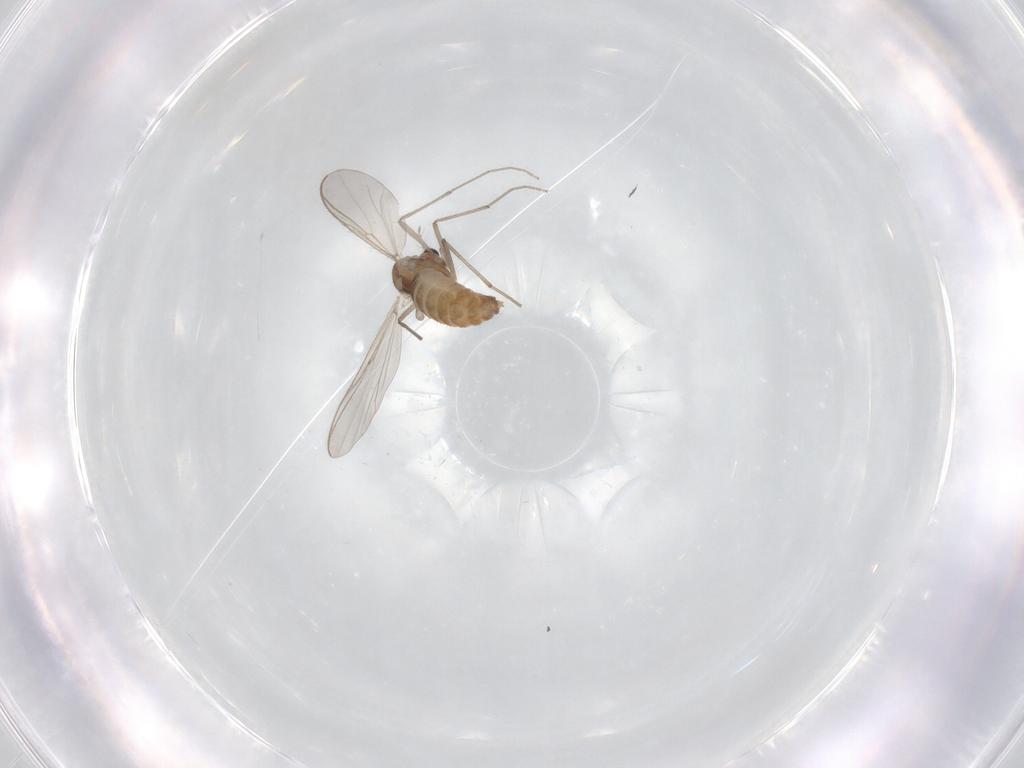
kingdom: Animalia
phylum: Arthropoda
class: Insecta
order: Diptera
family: Chironomidae
